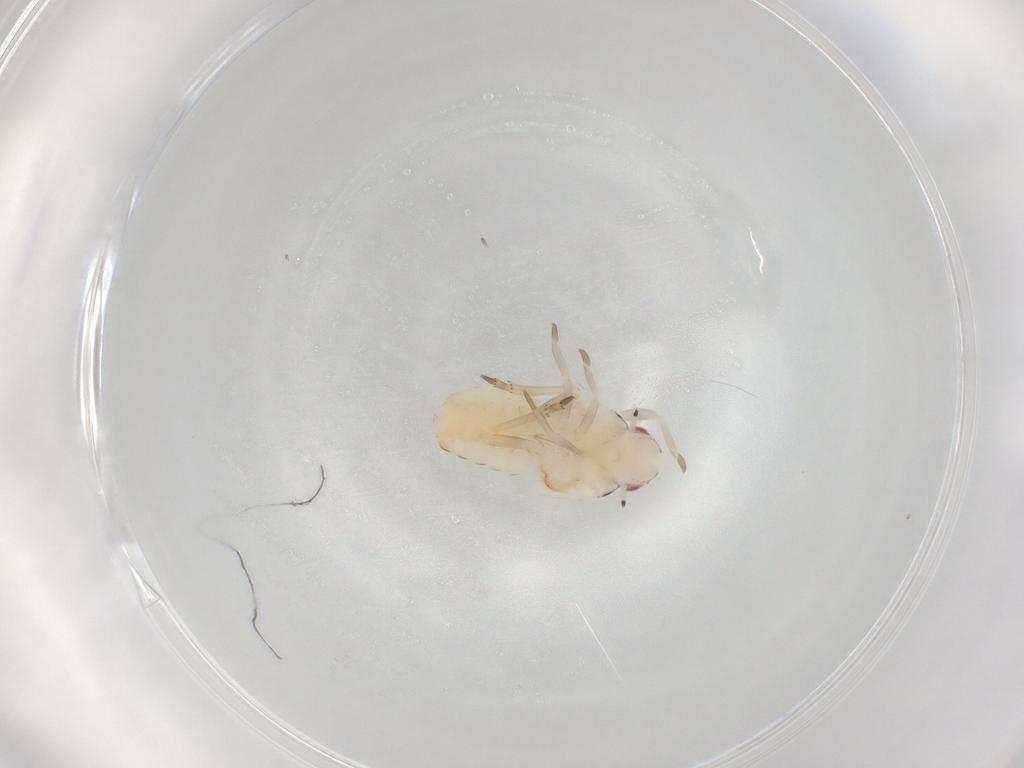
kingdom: Animalia
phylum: Arthropoda
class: Insecta
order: Hemiptera
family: Flatidae
